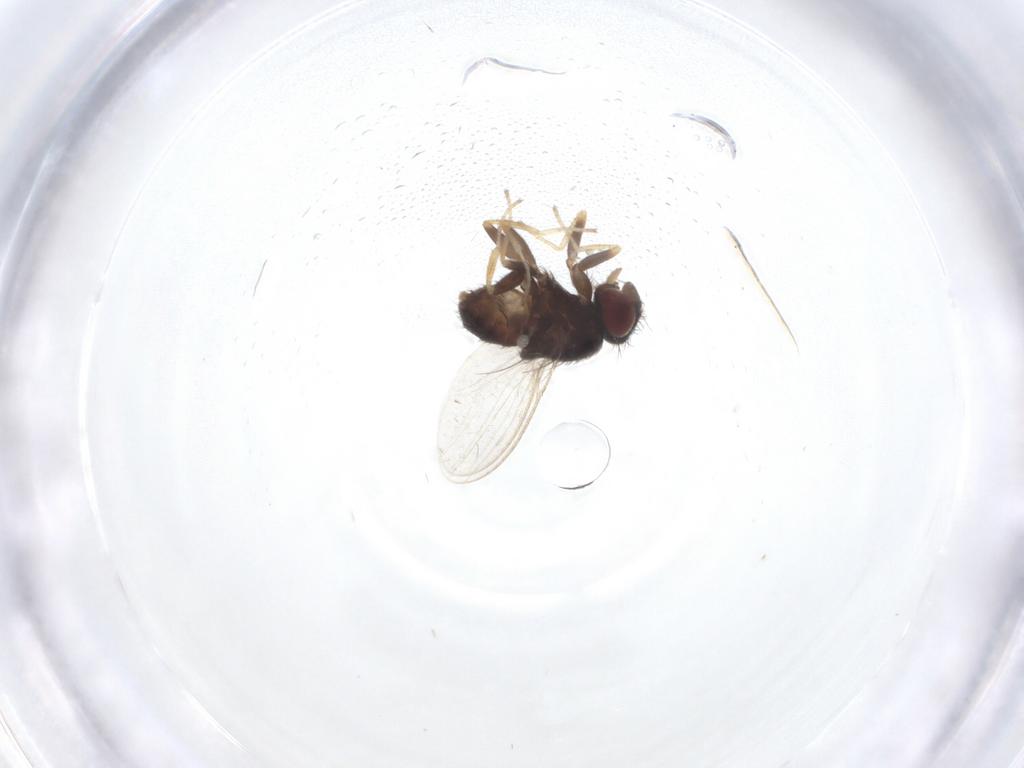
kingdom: Animalia
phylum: Arthropoda
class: Insecta
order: Diptera
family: Milichiidae
